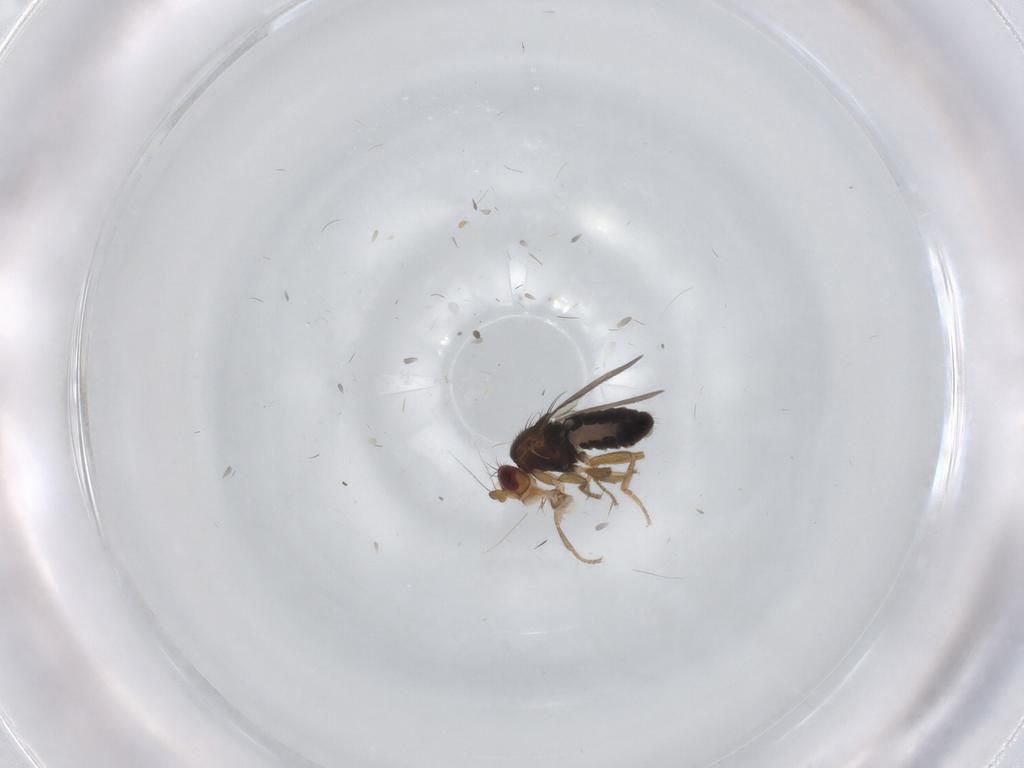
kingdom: Animalia
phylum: Arthropoda
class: Insecta
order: Diptera
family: Sphaeroceridae
